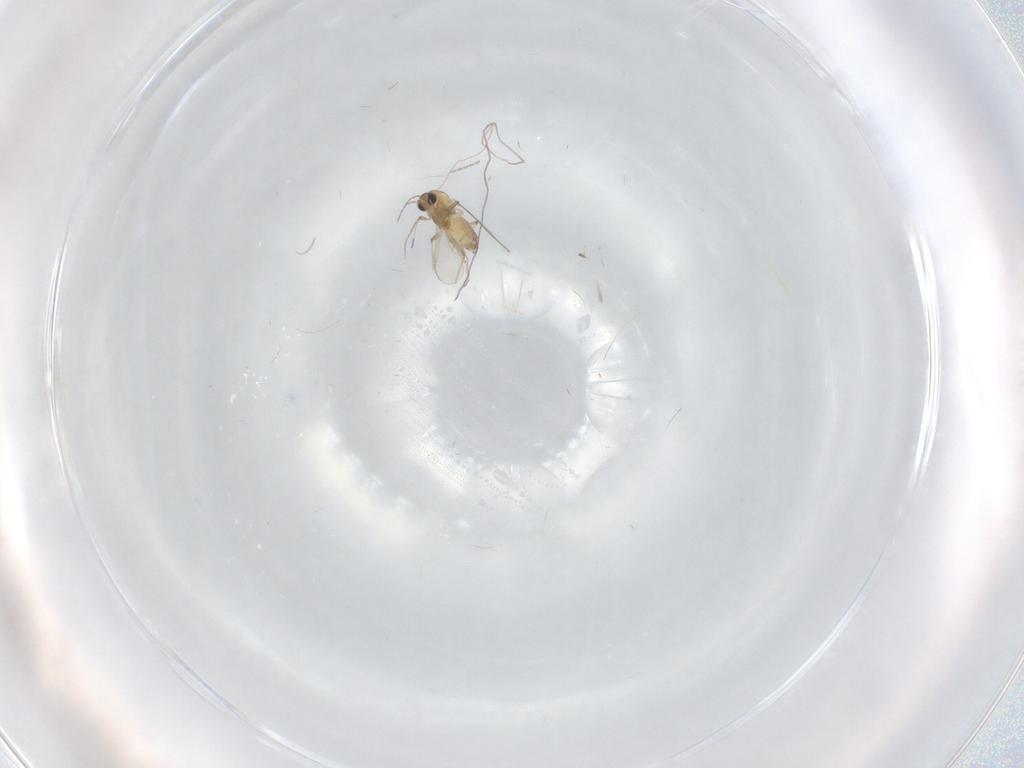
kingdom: Animalia
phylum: Arthropoda
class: Insecta
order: Diptera
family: Chironomidae
